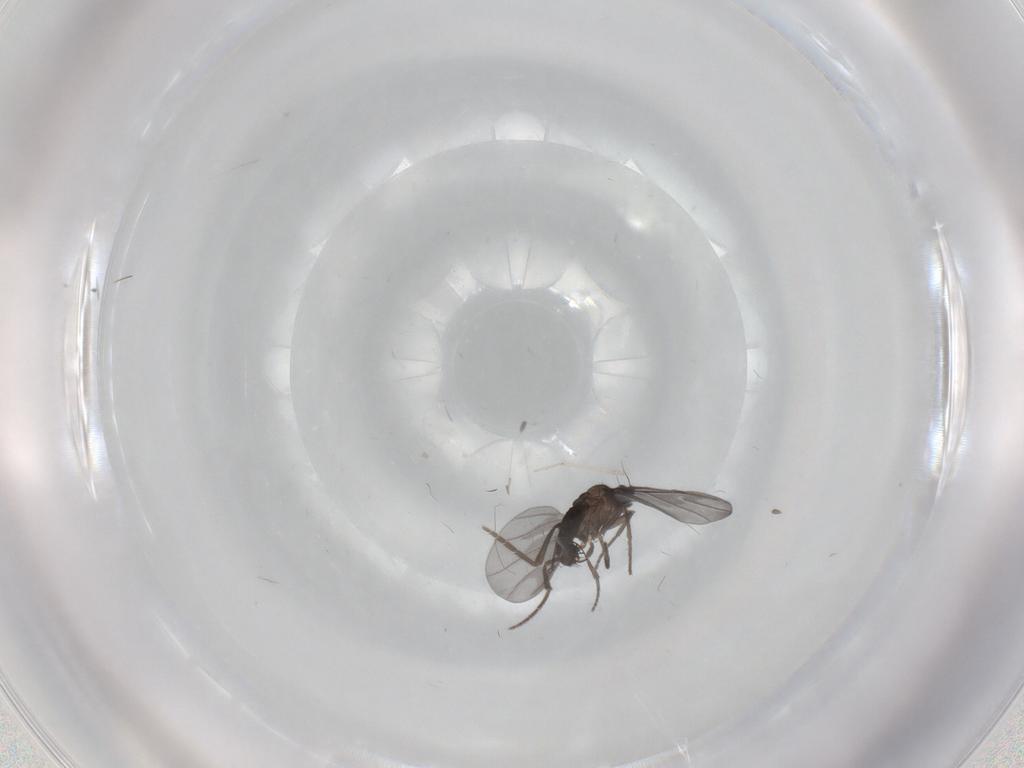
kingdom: Animalia
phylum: Arthropoda
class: Insecta
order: Diptera
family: Phoridae
